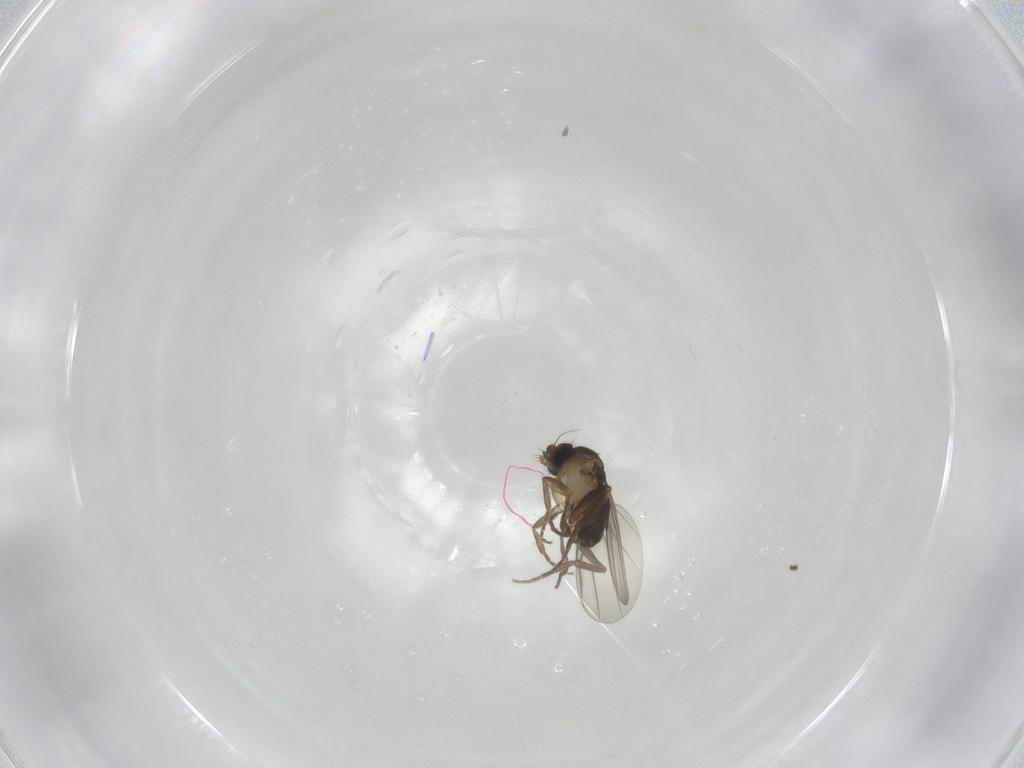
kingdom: Animalia
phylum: Arthropoda
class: Insecta
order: Diptera
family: Phoridae
